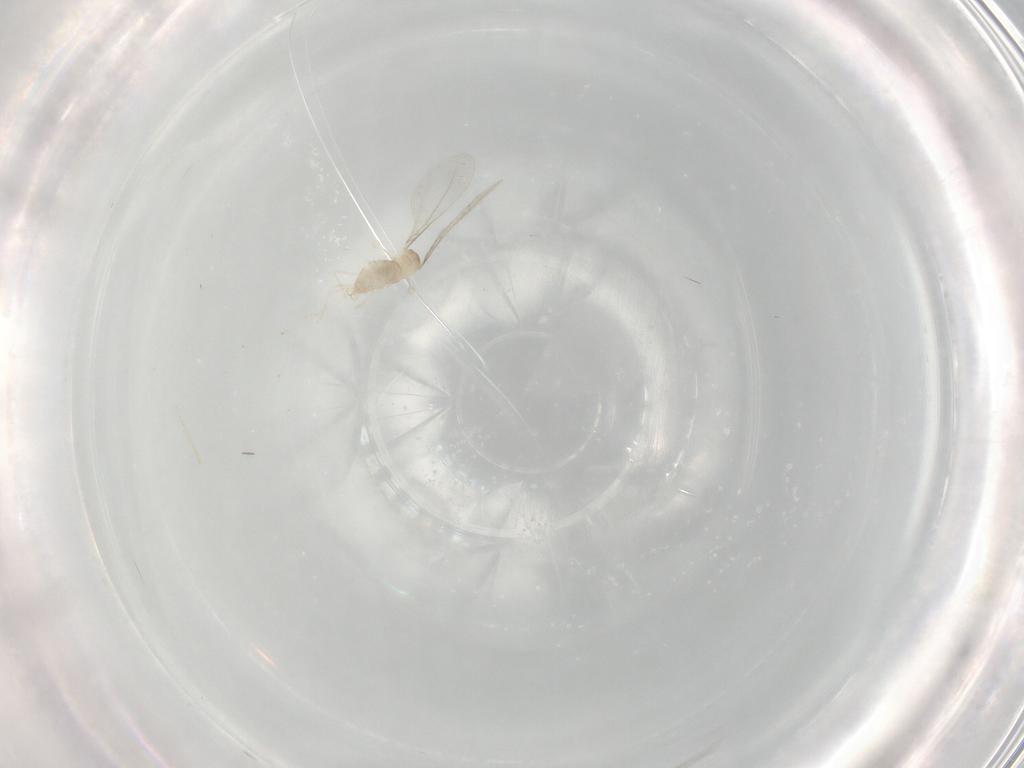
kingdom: Animalia
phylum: Arthropoda
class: Insecta
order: Diptera
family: Cecidomyiidae
